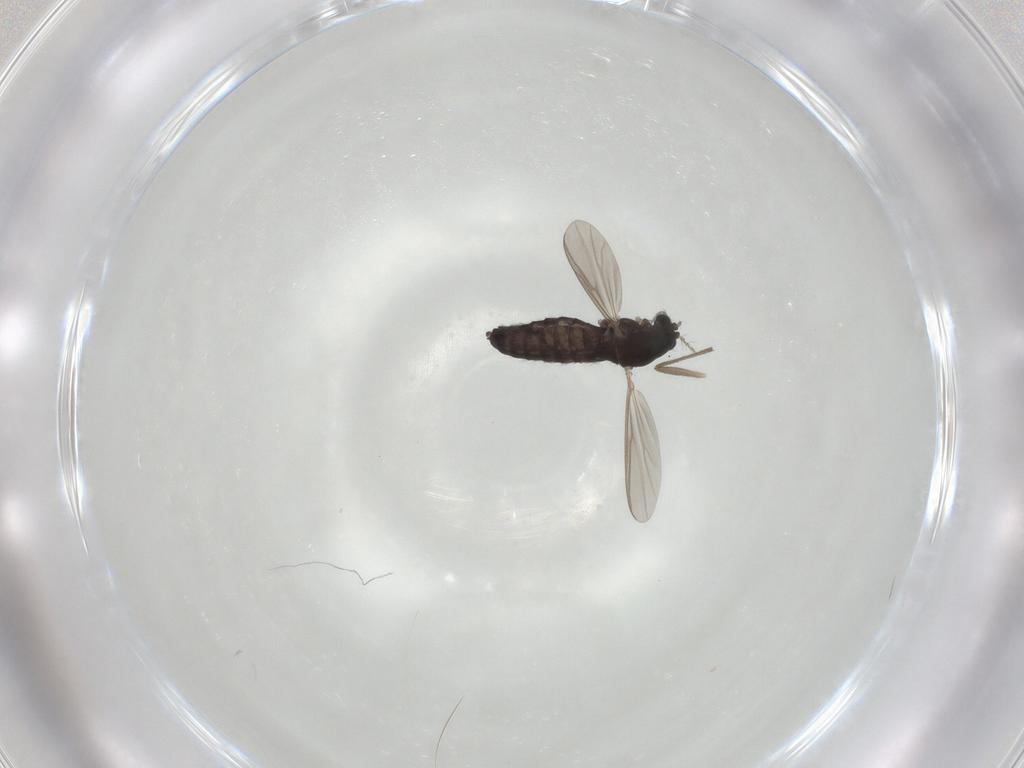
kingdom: Animalia
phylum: Arthropoda
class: Insecta
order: Diptera
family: Chironomidae
